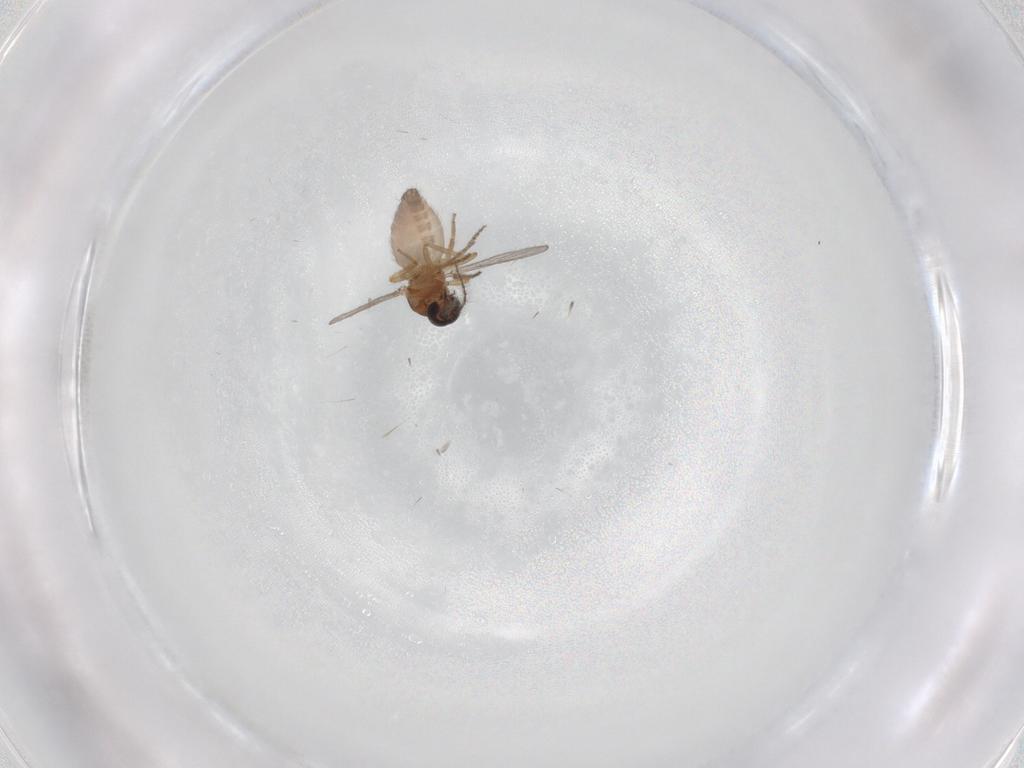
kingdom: Animalia
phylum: Arthropoda
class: Insecta
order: Diptera
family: Ceratopogonidae
